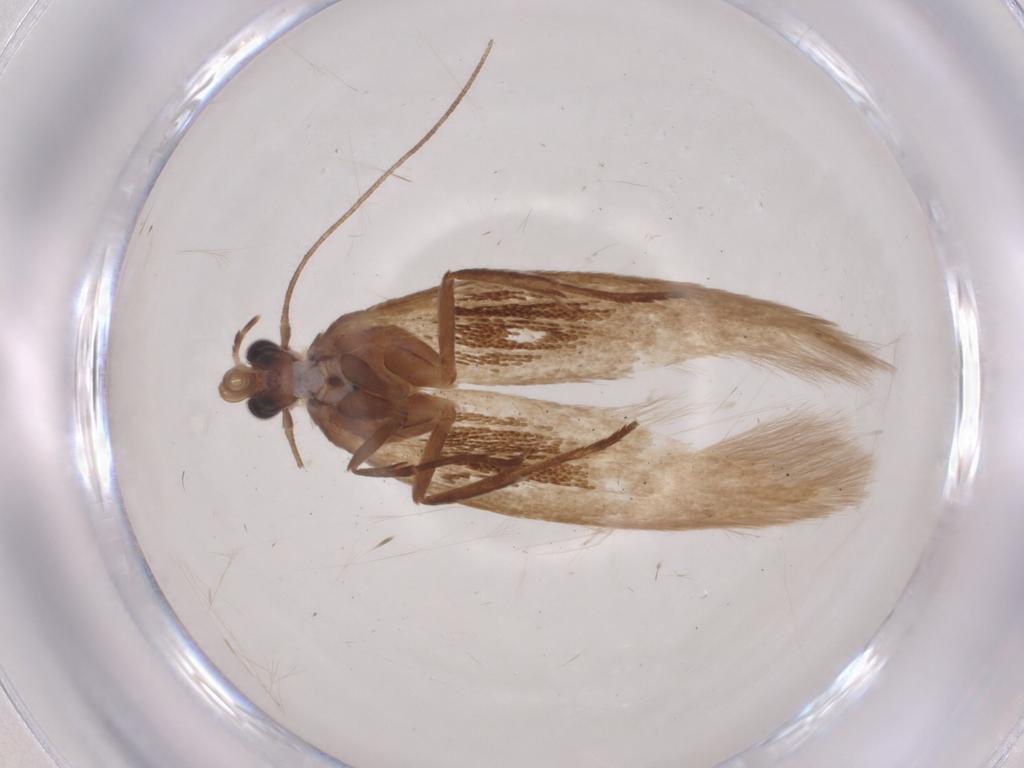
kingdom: Animalia
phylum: Arthropoda
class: Insecta
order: Lepidoptera
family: Scythrididae
